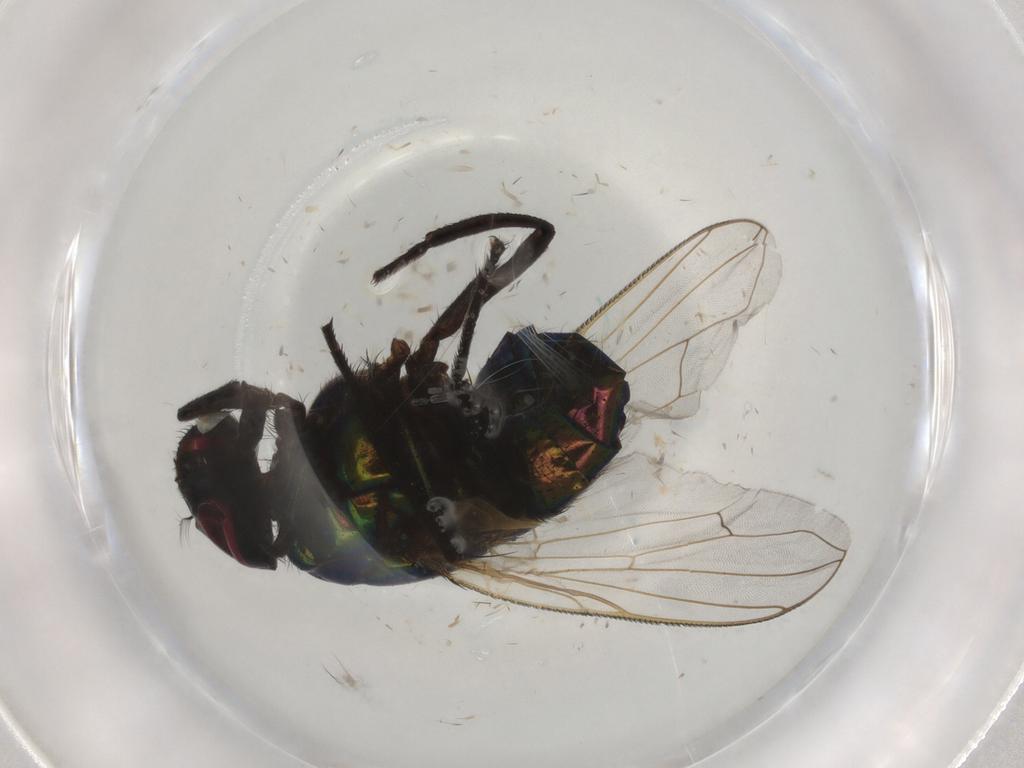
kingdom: Animalia
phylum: Arthropoda
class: Insecta
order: Diptera
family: Muscidae
